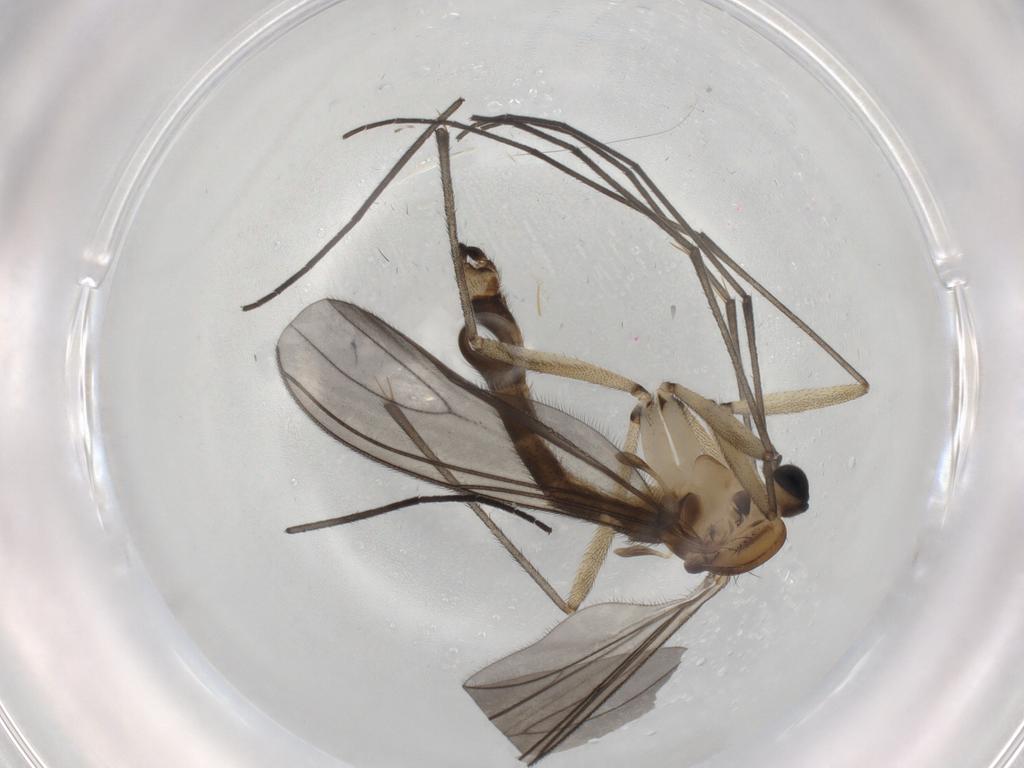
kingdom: Animalia
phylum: Arthropoda
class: Insecta
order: Diptera
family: Sciaridae
